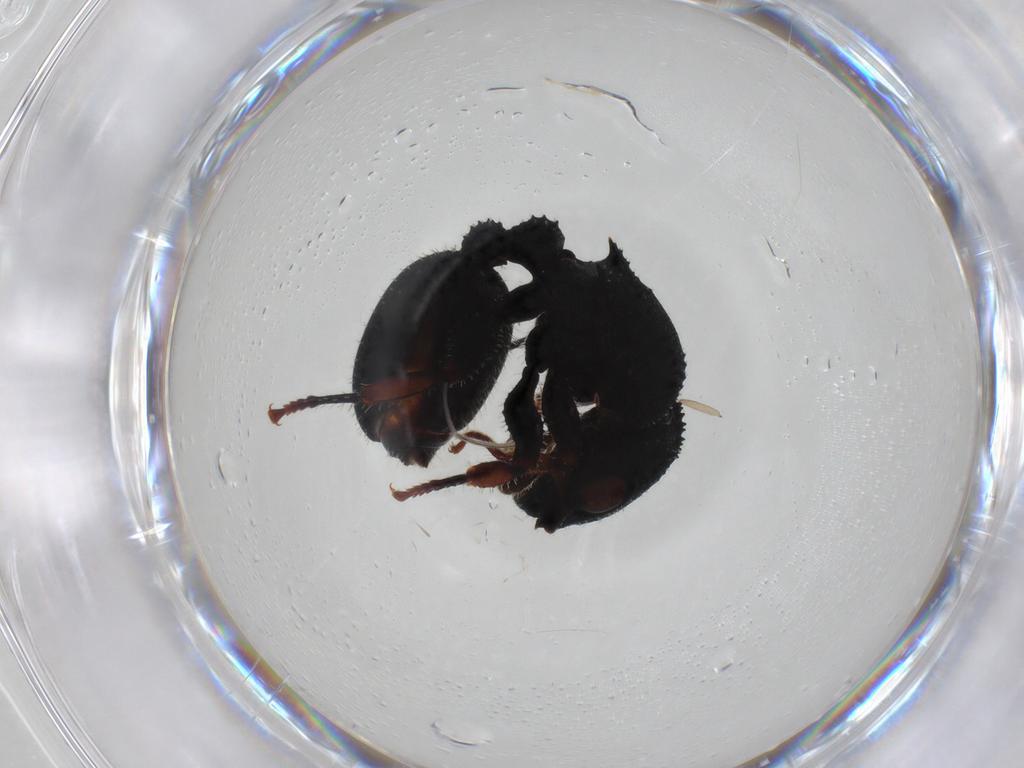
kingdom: Animalia
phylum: Arthropoda
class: Insecta
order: Hymenoptera
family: Formicidae
